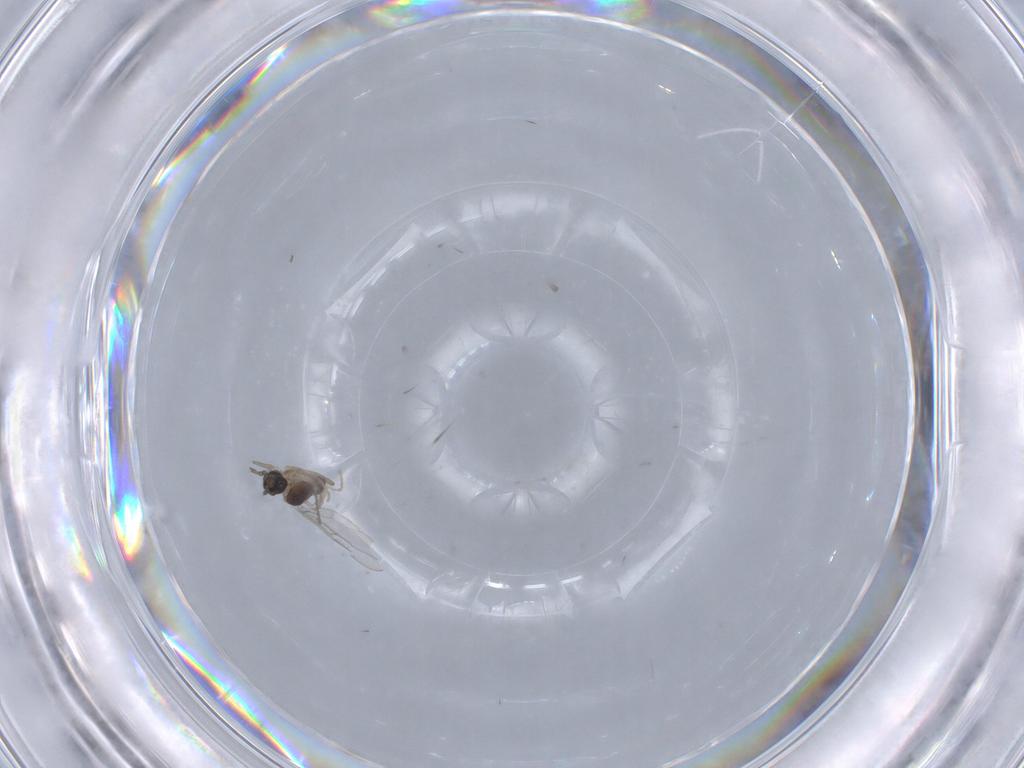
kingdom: Animalia
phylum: Arthropoda
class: Insecta
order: Diptera
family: Cecidomyiidae
